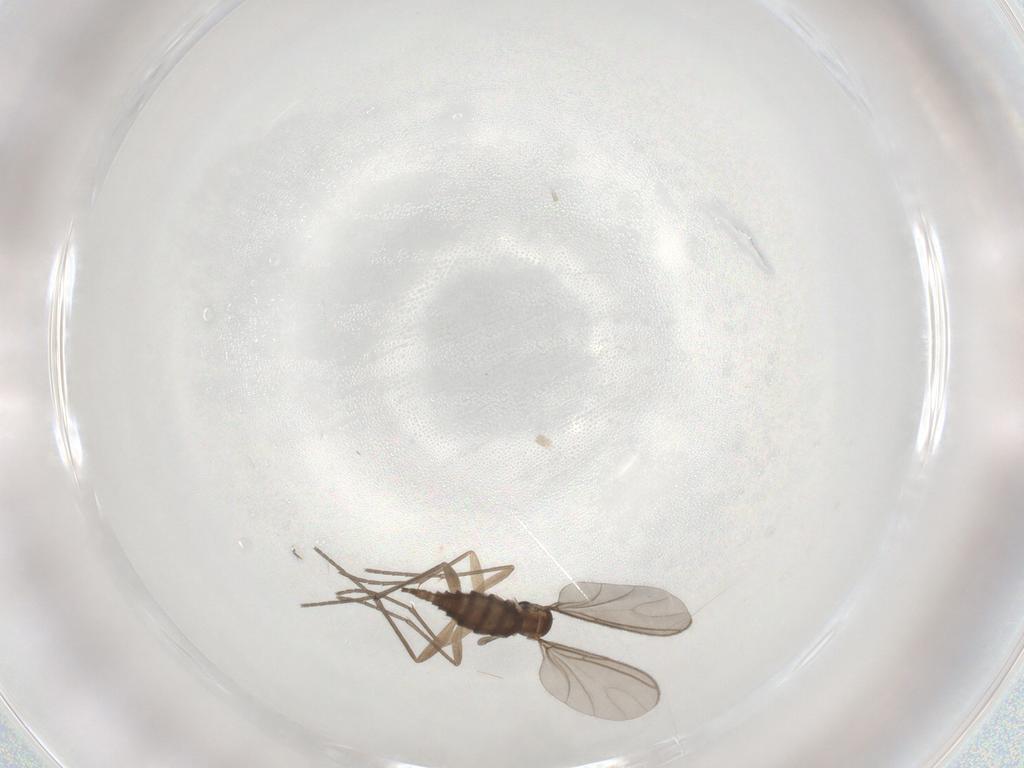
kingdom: Animalia
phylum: Arthropoda
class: Insecta
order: Diptera
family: Sciaridae
